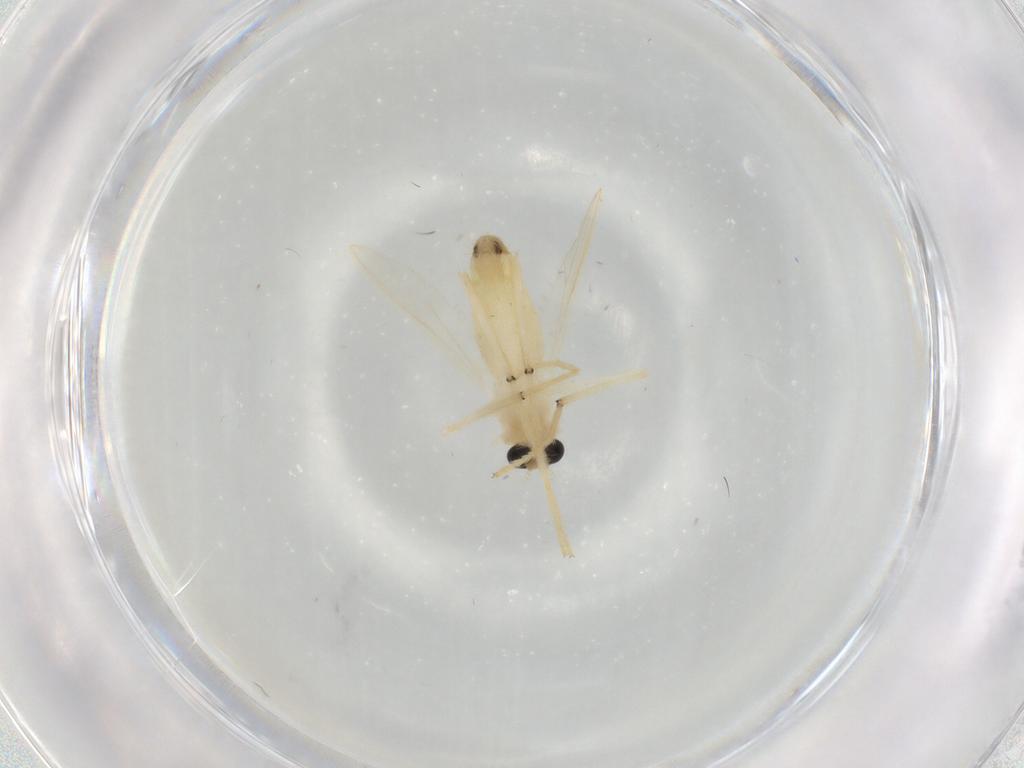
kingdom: Animalia
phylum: Arthropoda
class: Insecta
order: Diptera
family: Chironomidae
